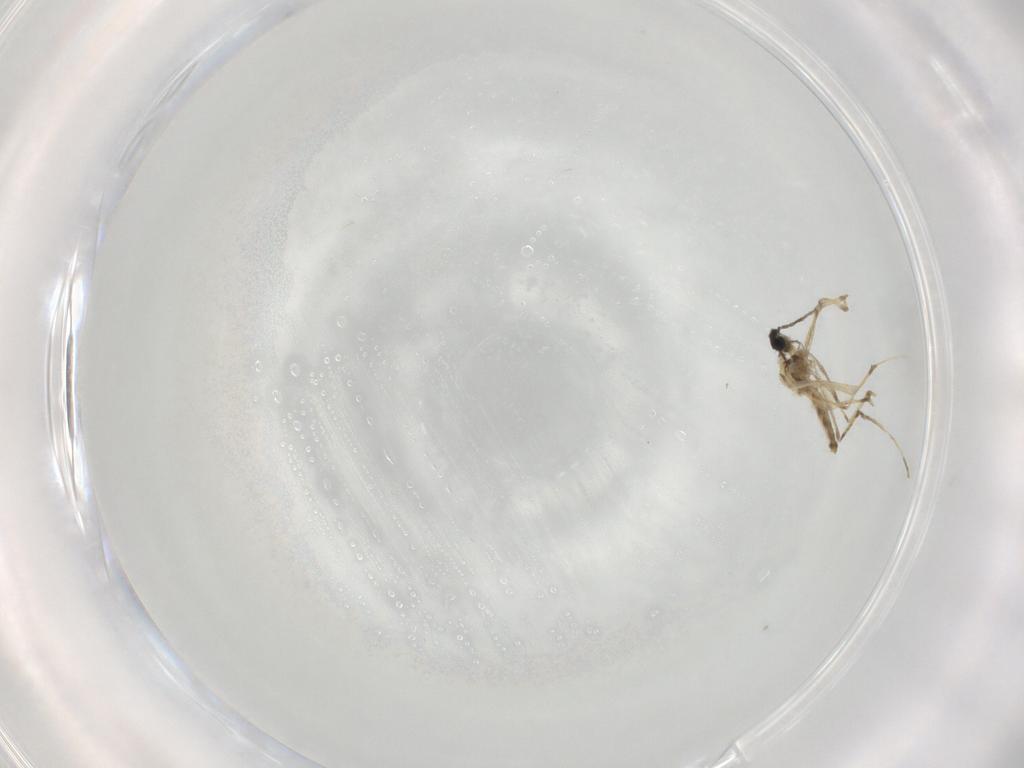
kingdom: Animalia
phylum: Arthropoda
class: Insecta
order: Diptera
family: Cecidomyiidae
